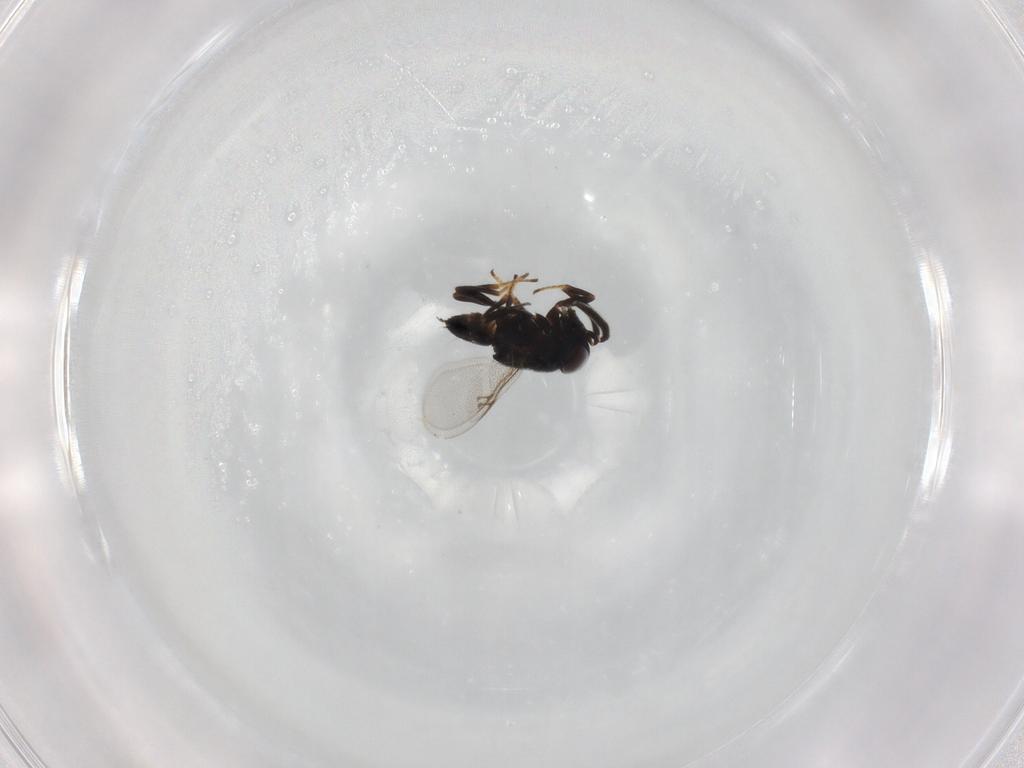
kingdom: Animalia
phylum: Arthropoda
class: Insecta
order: Hymenoptera
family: Encyrtidae
